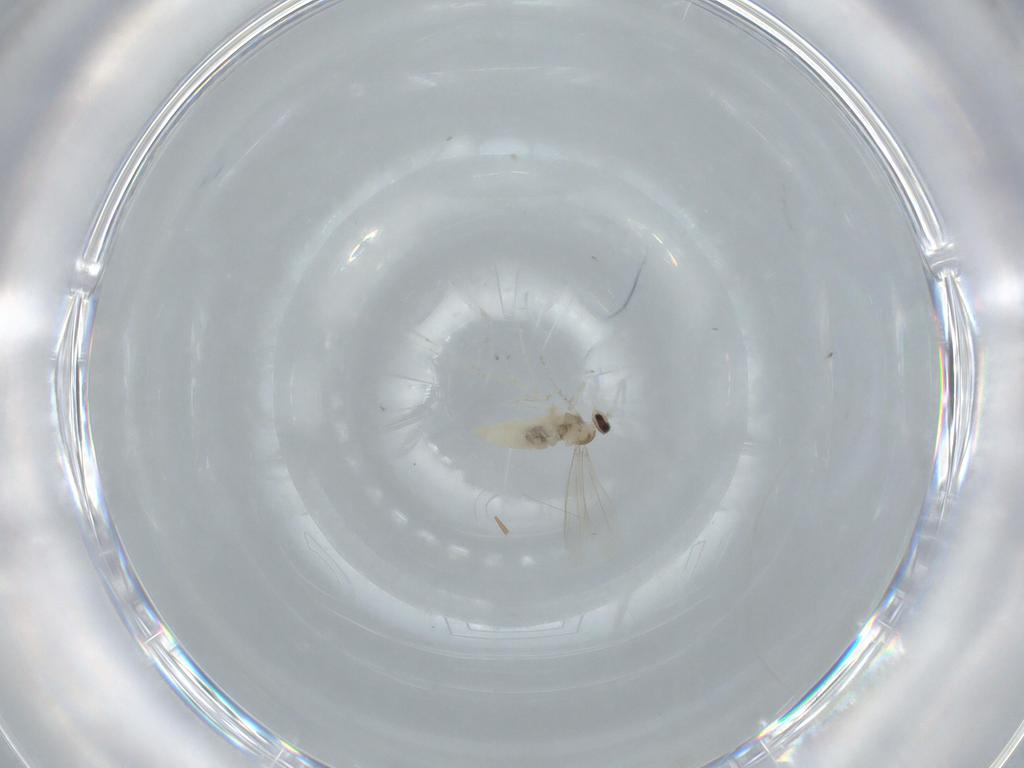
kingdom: Animalia
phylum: Arthropoda
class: Insecta
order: Diptera
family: Cecidomyiidae
